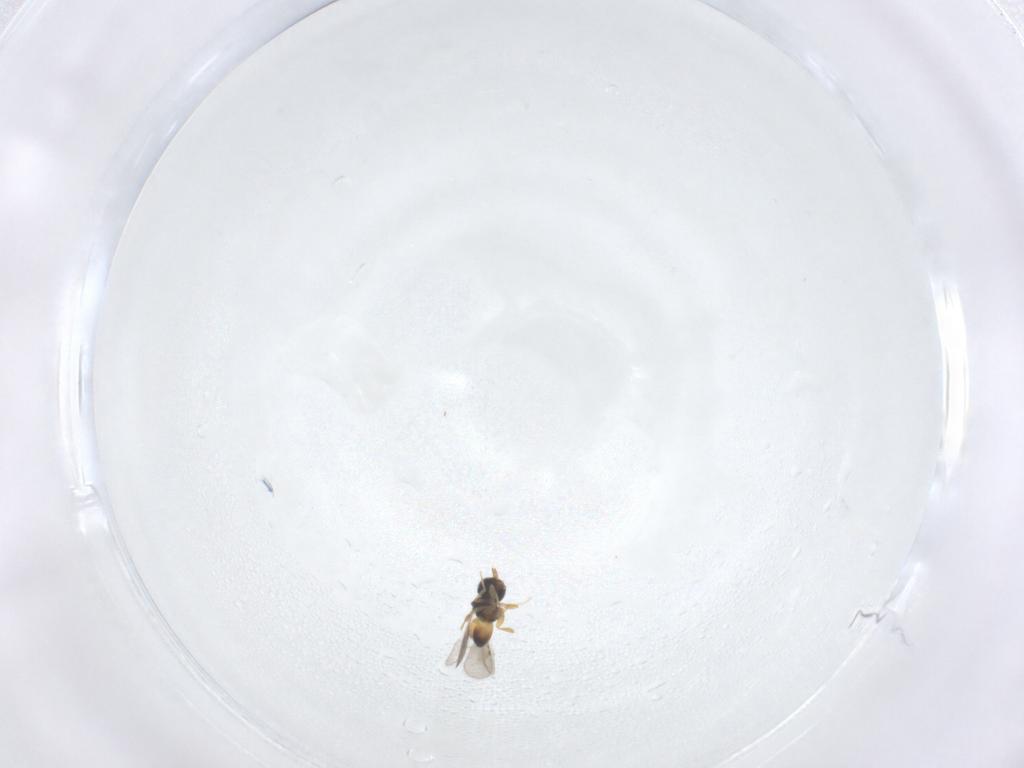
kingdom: Animalia
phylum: Arthropoda
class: Insecta
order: Hymenoptera
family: Ceraphronidae
